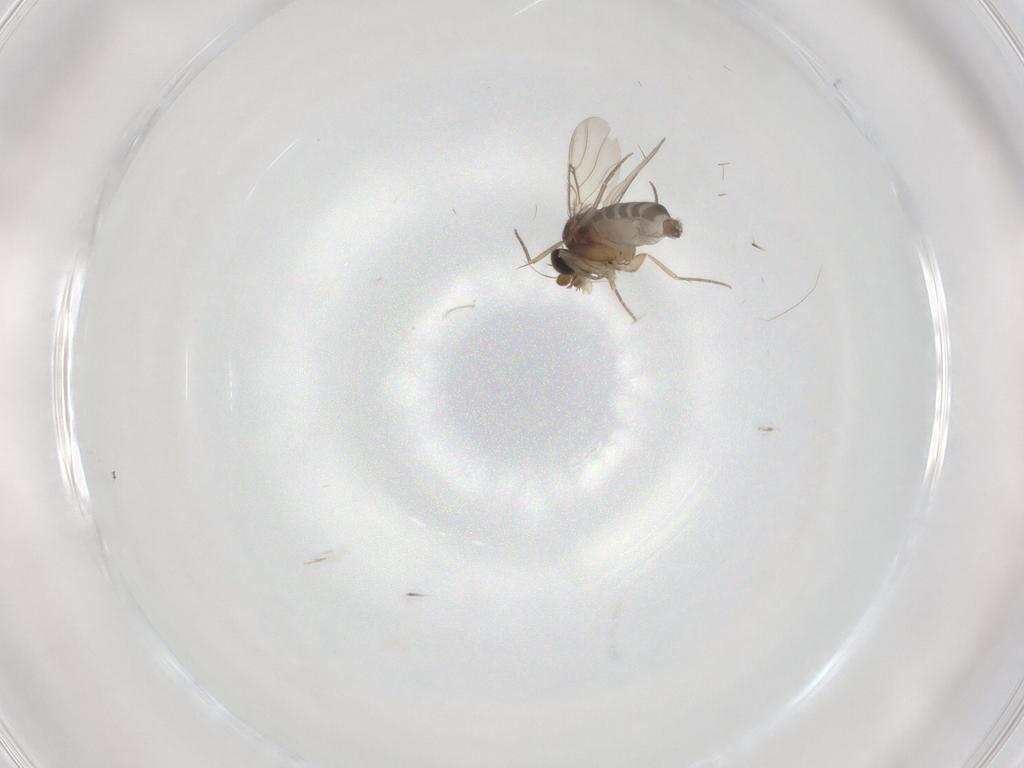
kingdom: Animalia
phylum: Arthropoda
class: Insecta
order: Diptera
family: Phoridae
